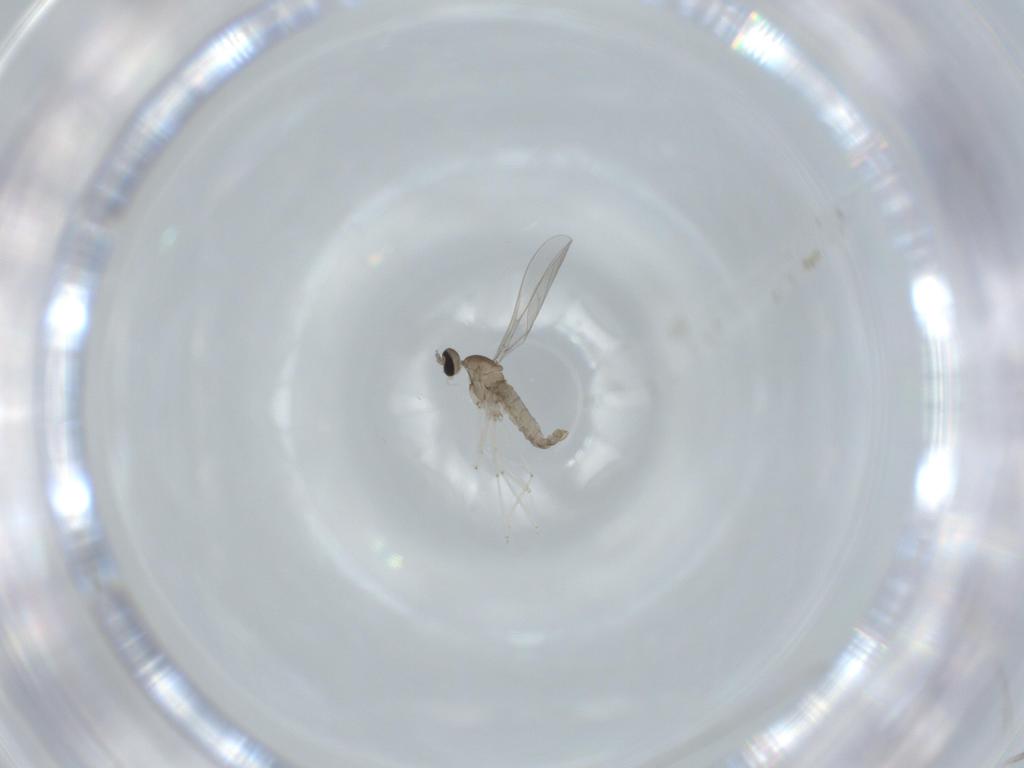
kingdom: Animalia
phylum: Arthropoda
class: Insecta
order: Diptera
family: Cecidomyiidae
